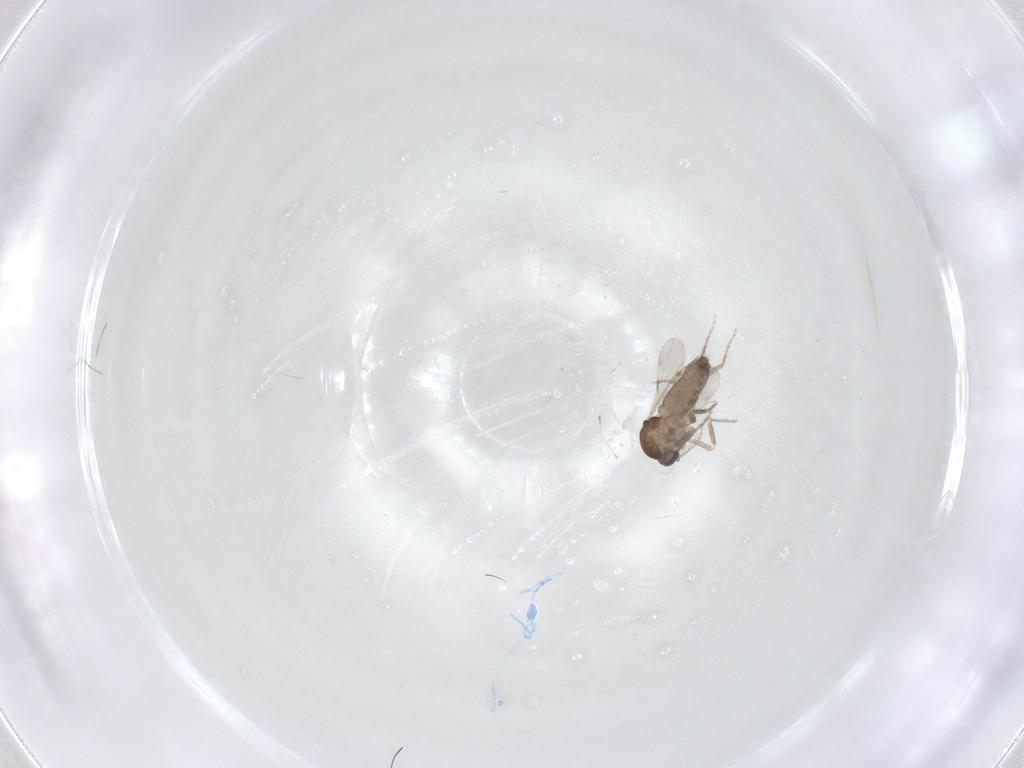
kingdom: Animalia
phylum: Arthropoda
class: Insecta
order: Diptera
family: Ceratopogonidae
